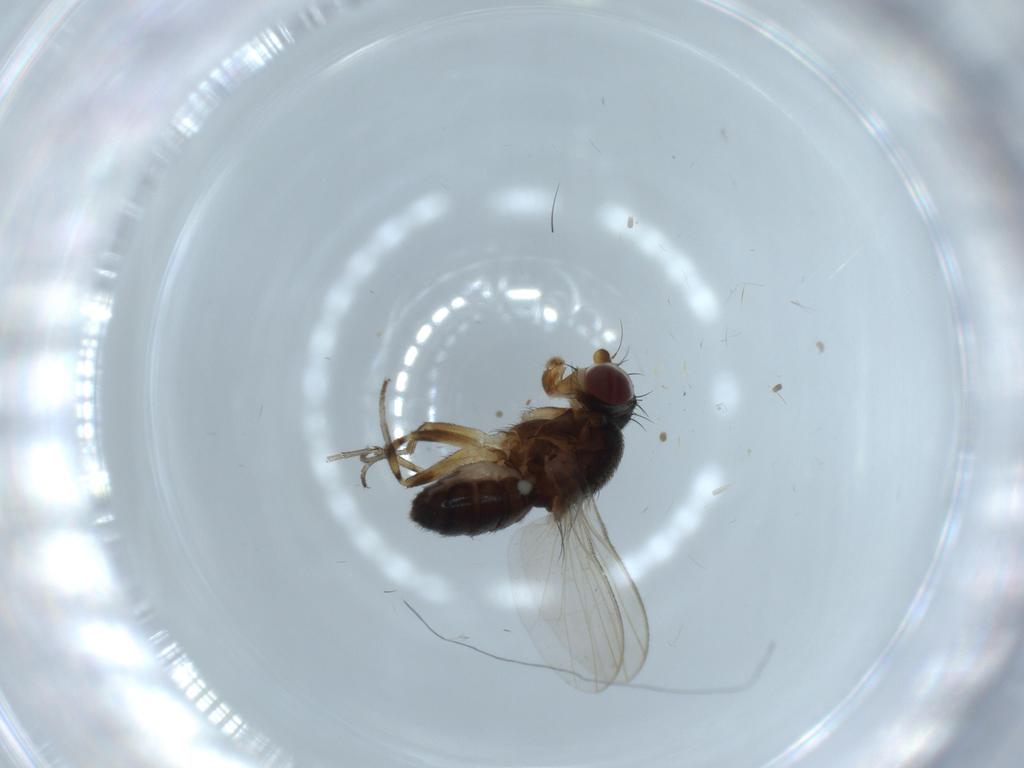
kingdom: Animalia
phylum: Arthropoda
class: Insecta
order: Diptera
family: Heleomyzidae
